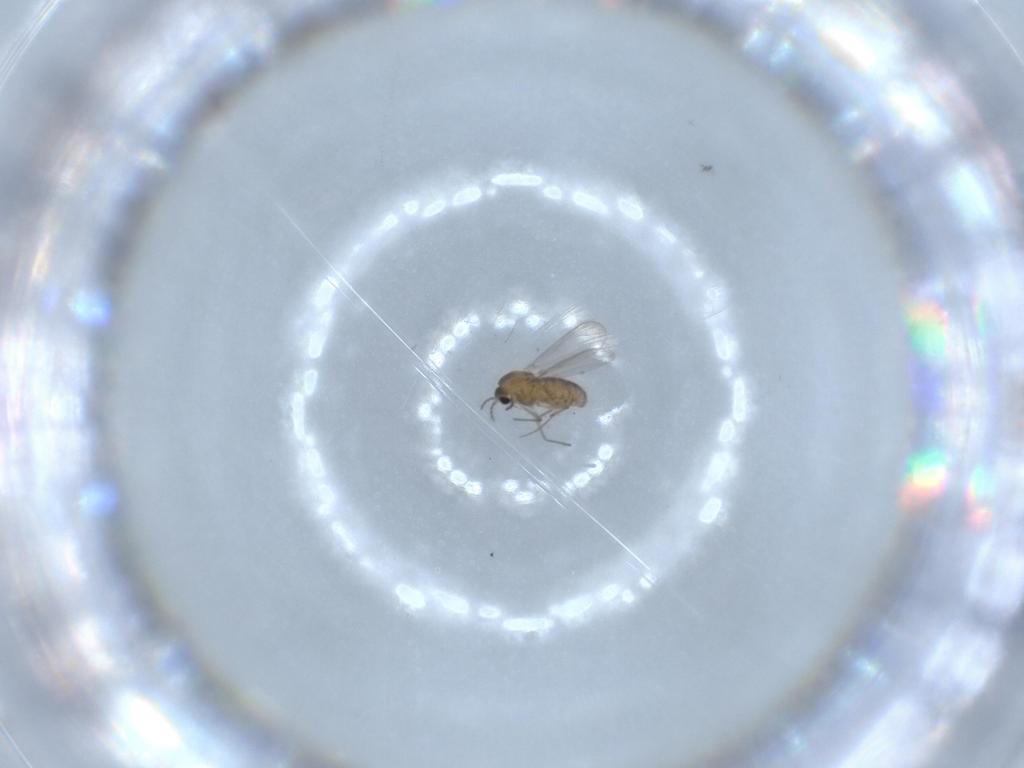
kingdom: Animalia
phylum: Arthropoda
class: Insecta
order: Diptera
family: Chironomidae
